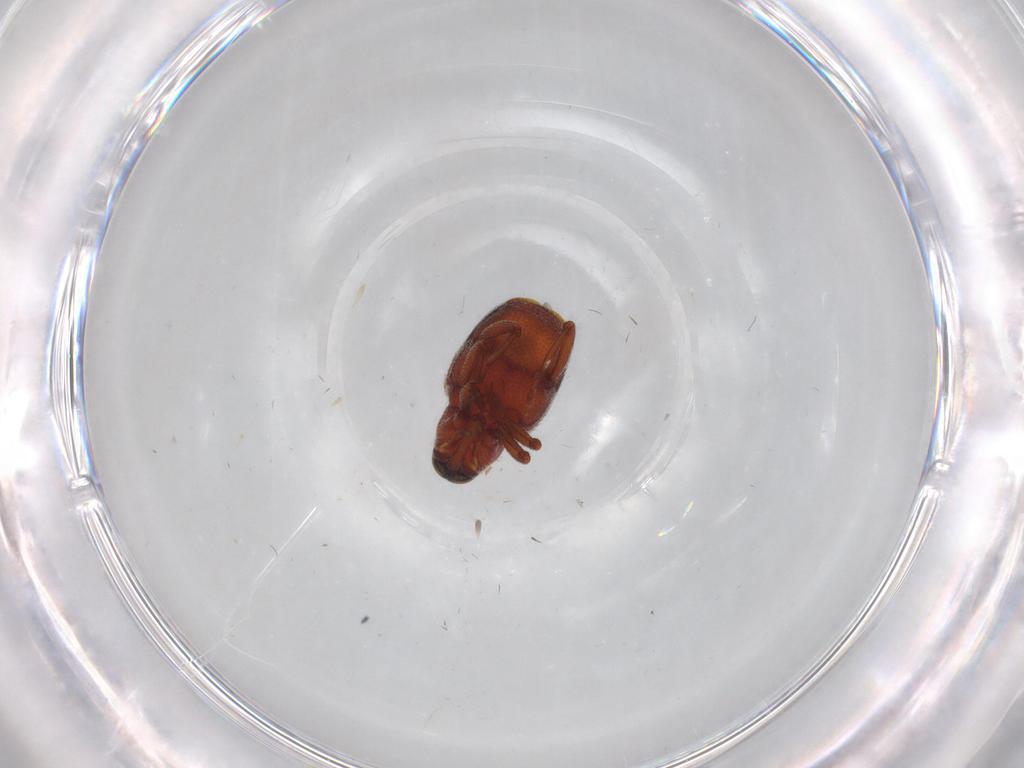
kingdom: Animalia
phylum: Arthropoda
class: Insecta
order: Coleoptera
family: Curculionidae
